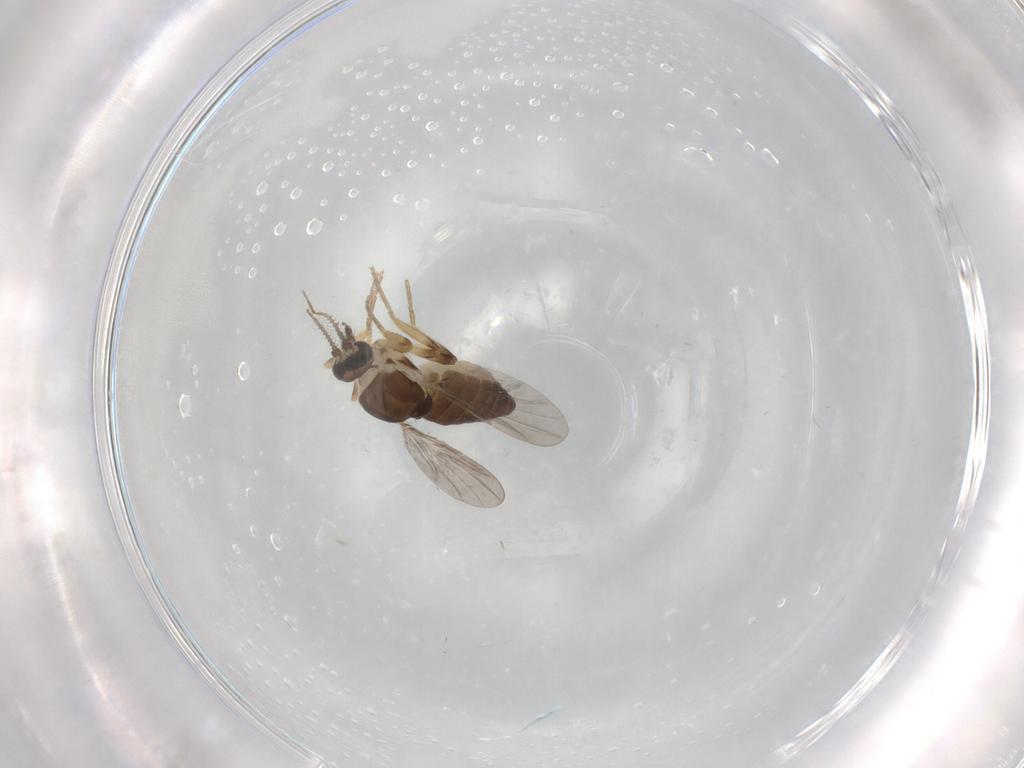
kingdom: Animalia
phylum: Arthropoda
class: Insecta
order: Diptera
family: Ceratopogonidae
